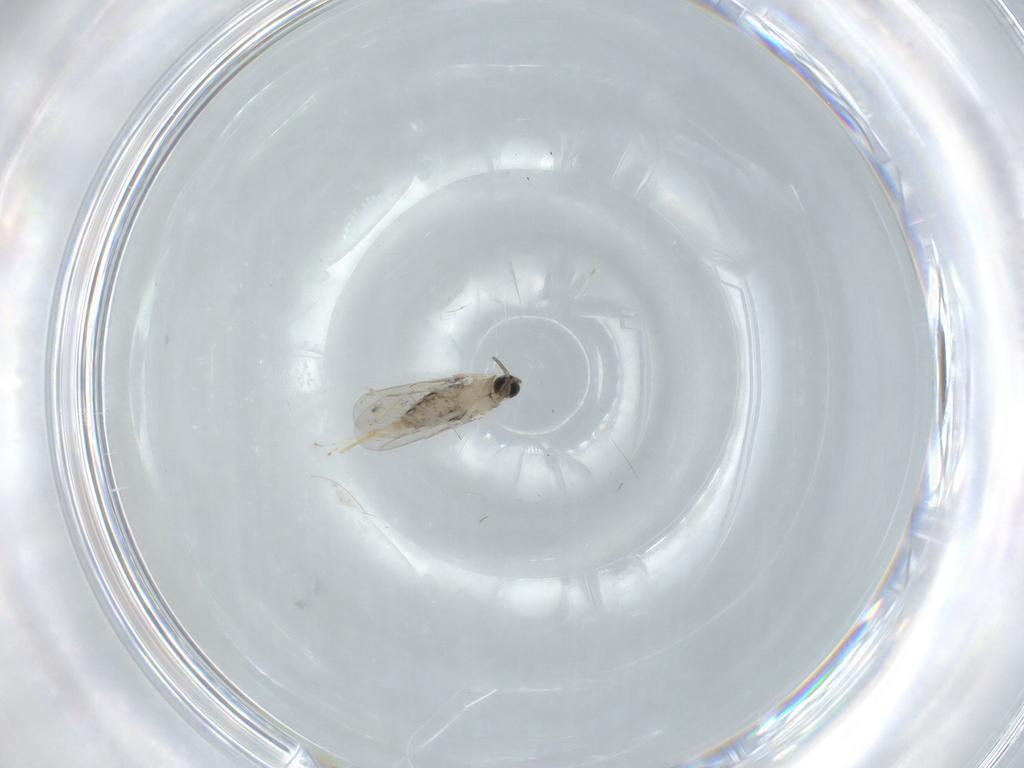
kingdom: Animalia
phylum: Arthropoda
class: Insecta
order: Diptera
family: Cecidomyiidae
